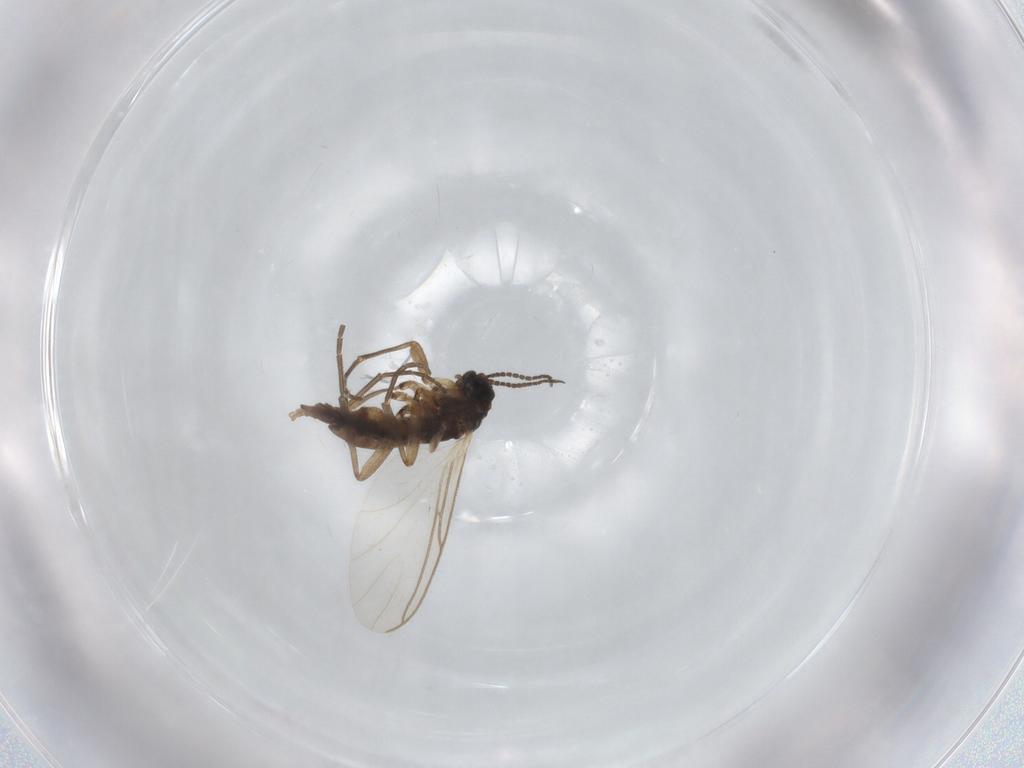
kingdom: Animalia
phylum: Arthropoda
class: Insecta
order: Diptera
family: Sciaridae
